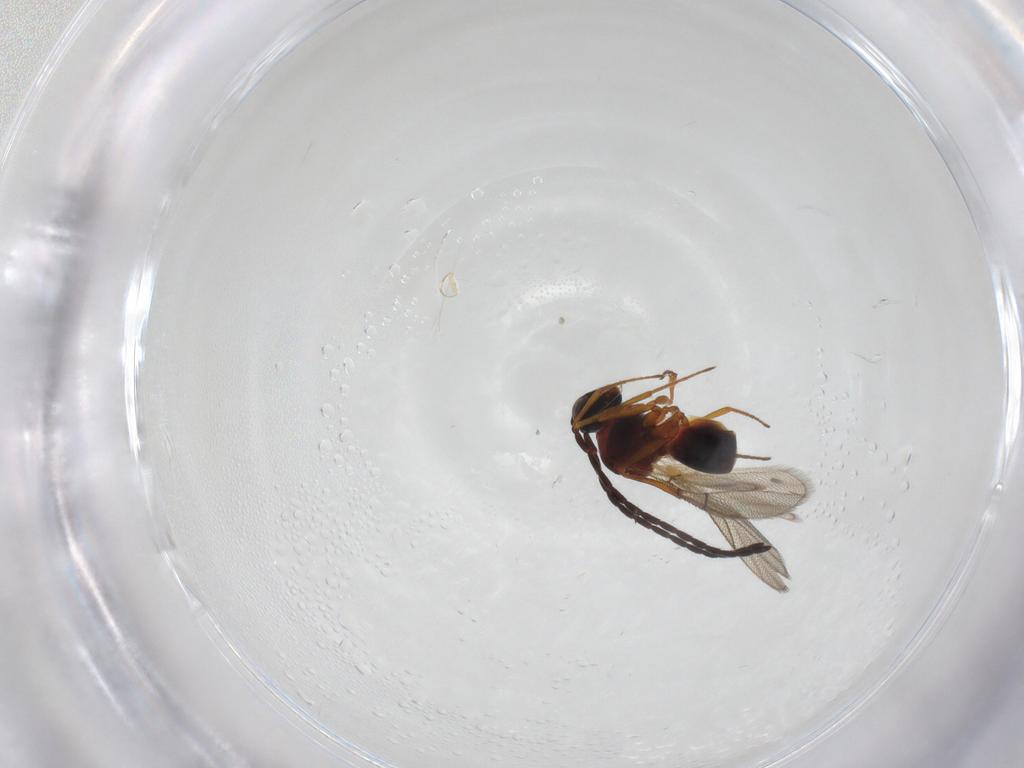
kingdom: Animalia
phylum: Arthropoda
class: Insecta
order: Hymenoptera
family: Figitidae
